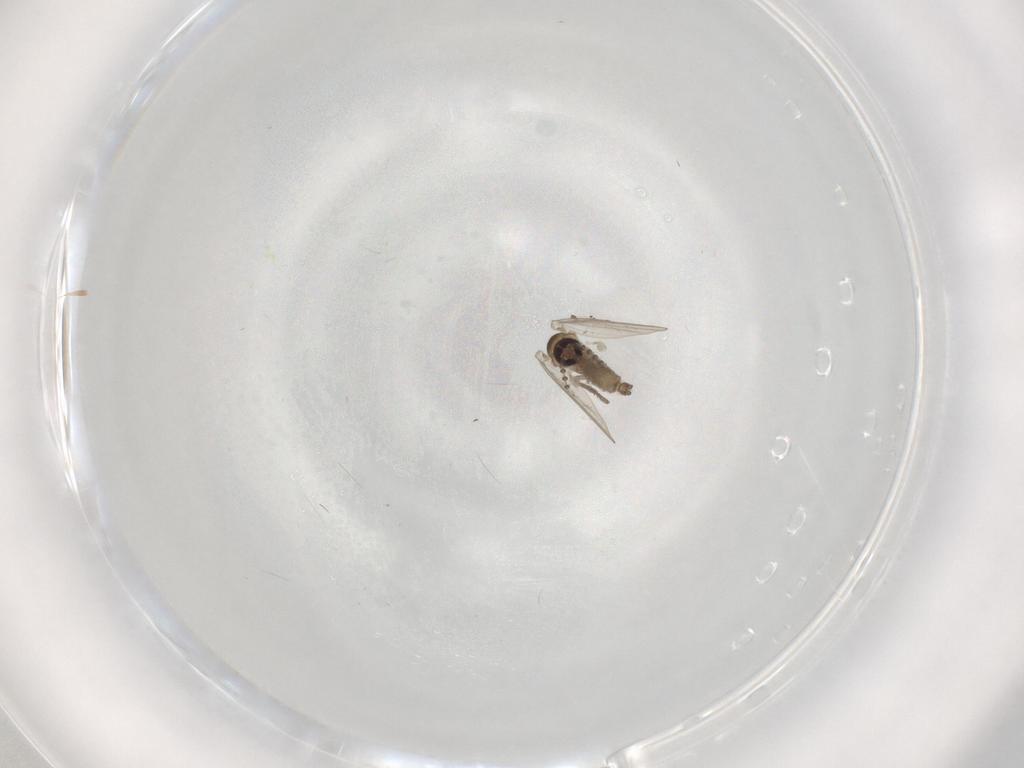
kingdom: Animalia
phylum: Arthropoda
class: Insecta
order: Diptera
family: Psychodidae
